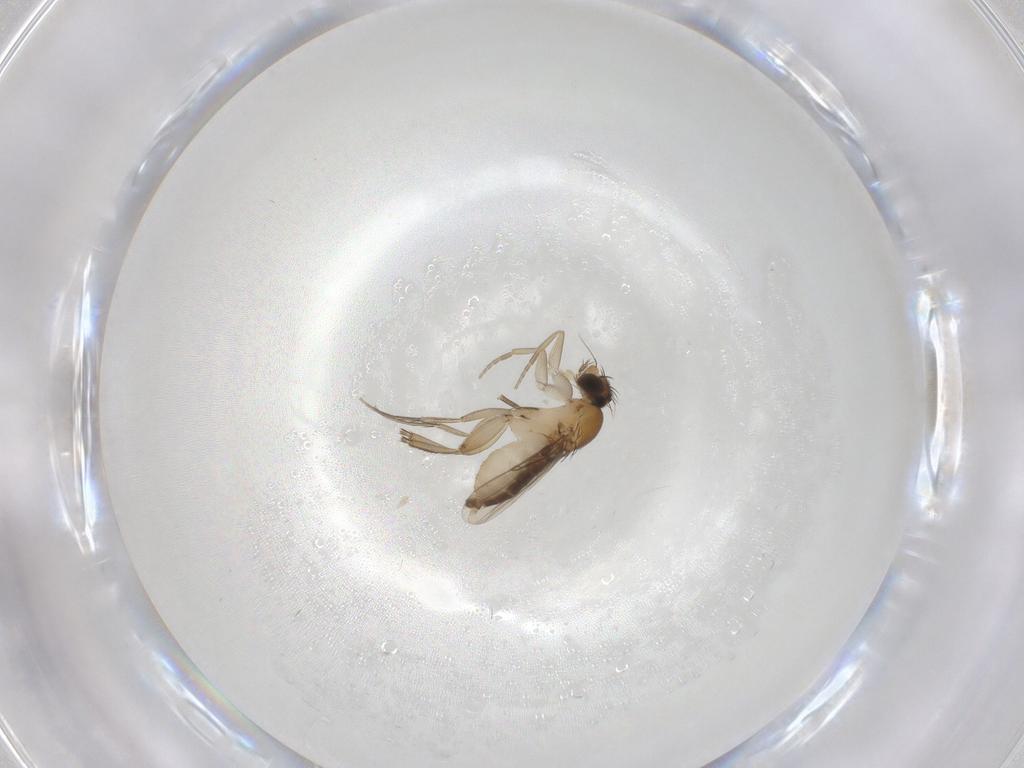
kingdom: Animalia
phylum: Arthropoda
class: Insecta
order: Diptera
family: Phoridae
